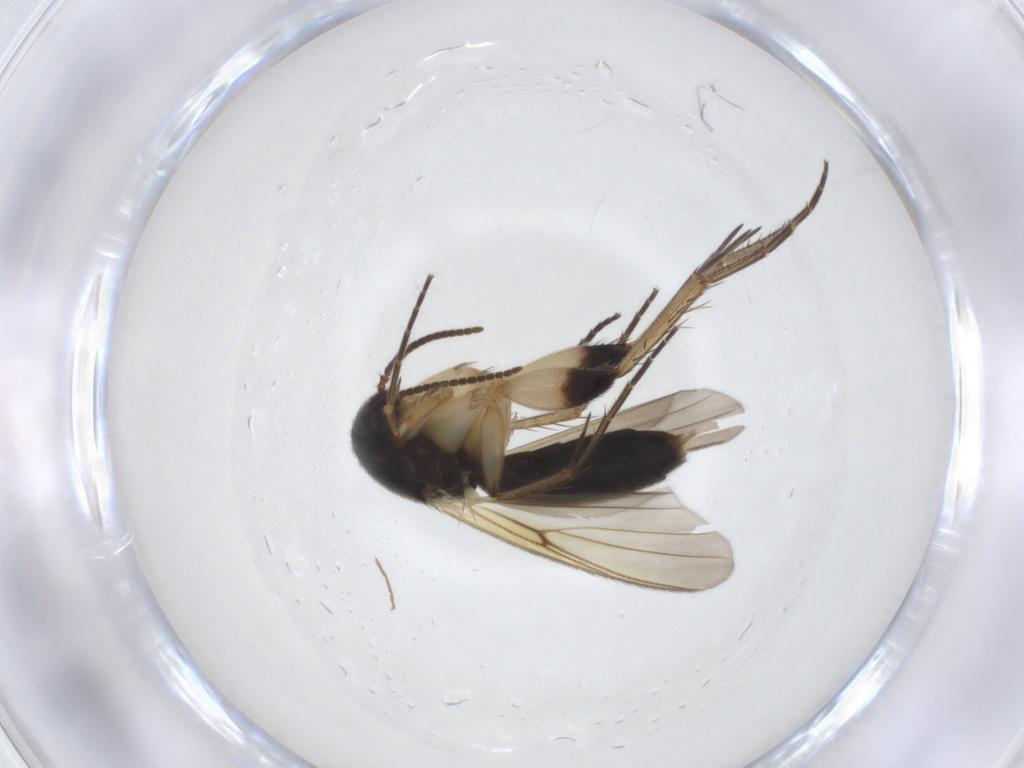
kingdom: Animalia
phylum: Arthropoda
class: Insecta
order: Diptera
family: Mycetophilidae
